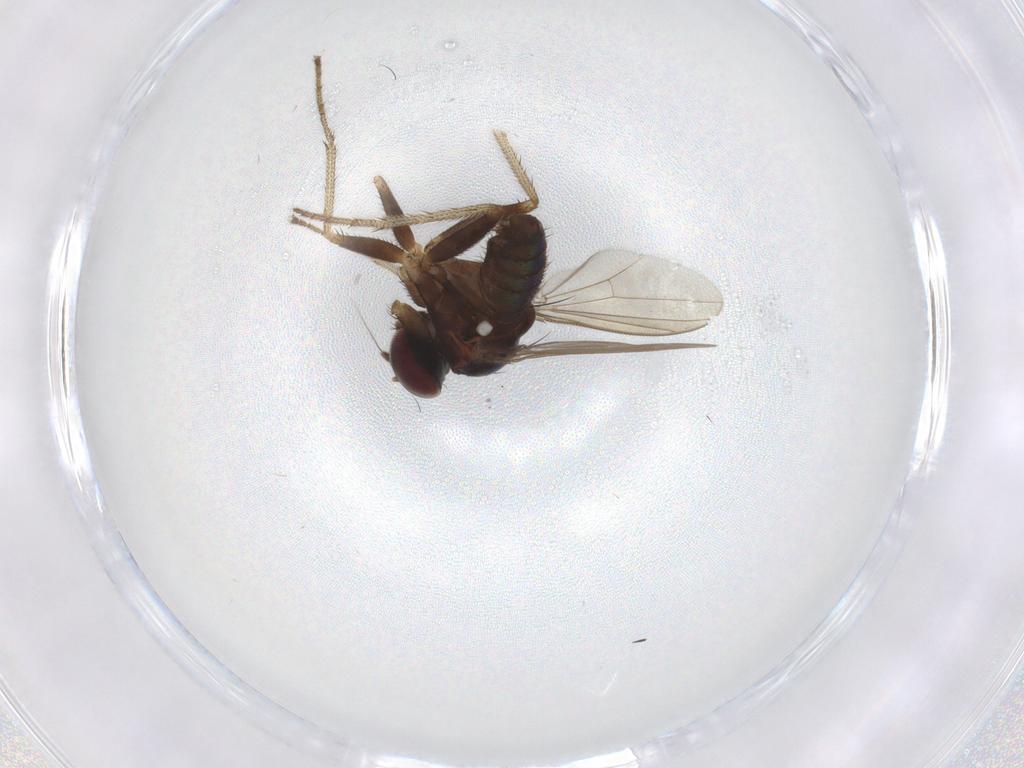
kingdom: Animalia
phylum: Arthropoda
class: Insecta
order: Diptera
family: Dolichopodidae
